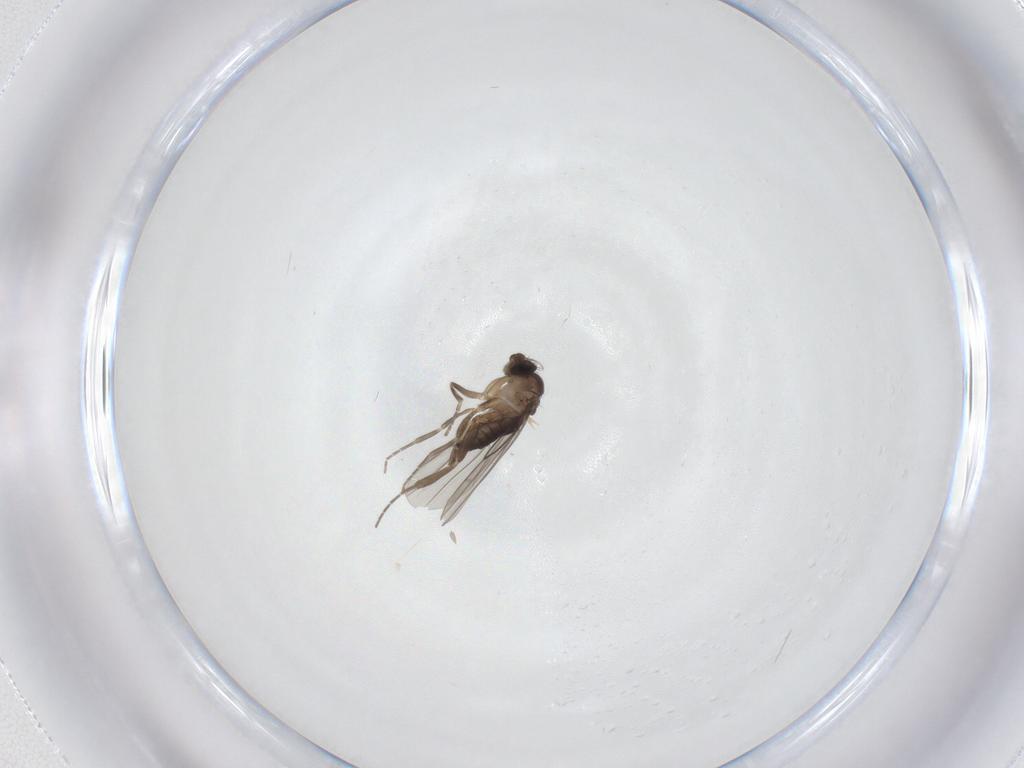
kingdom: Animalia
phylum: Arthropoda
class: Insecta
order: Diptera
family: Phoridae
